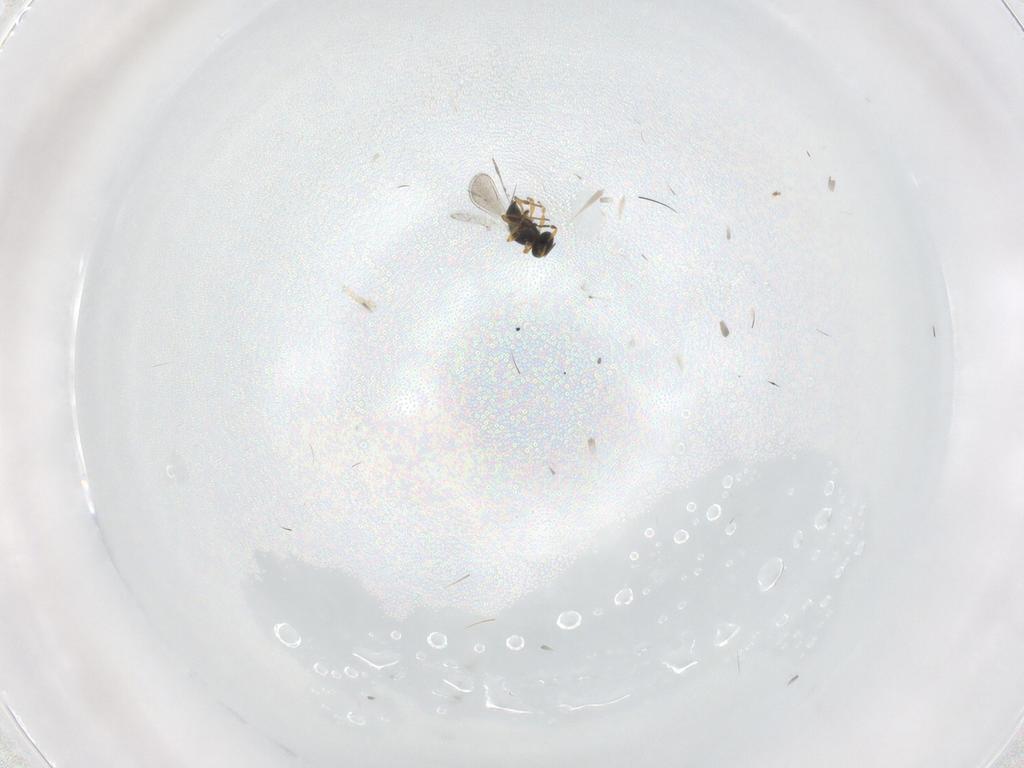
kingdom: Animalia
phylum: Arthropoda
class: Insecta
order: Hymenoptera
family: Platygastridae
